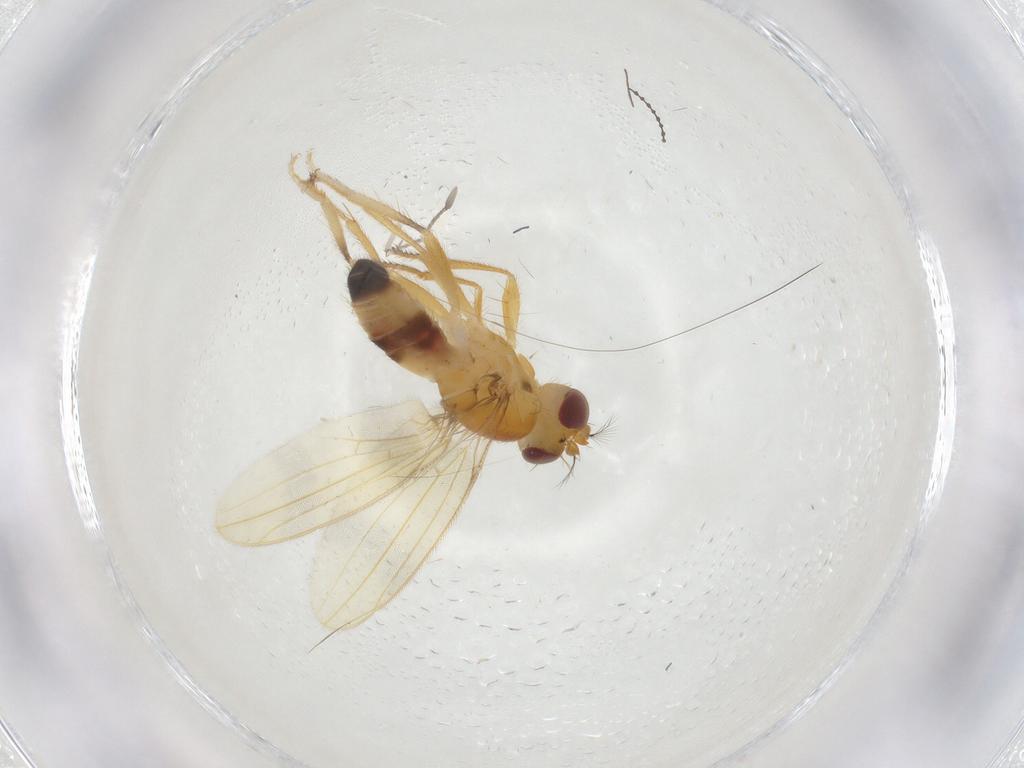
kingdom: Animalia
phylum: Arthropoda
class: Insecta
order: Diptera
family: Periscelididae
